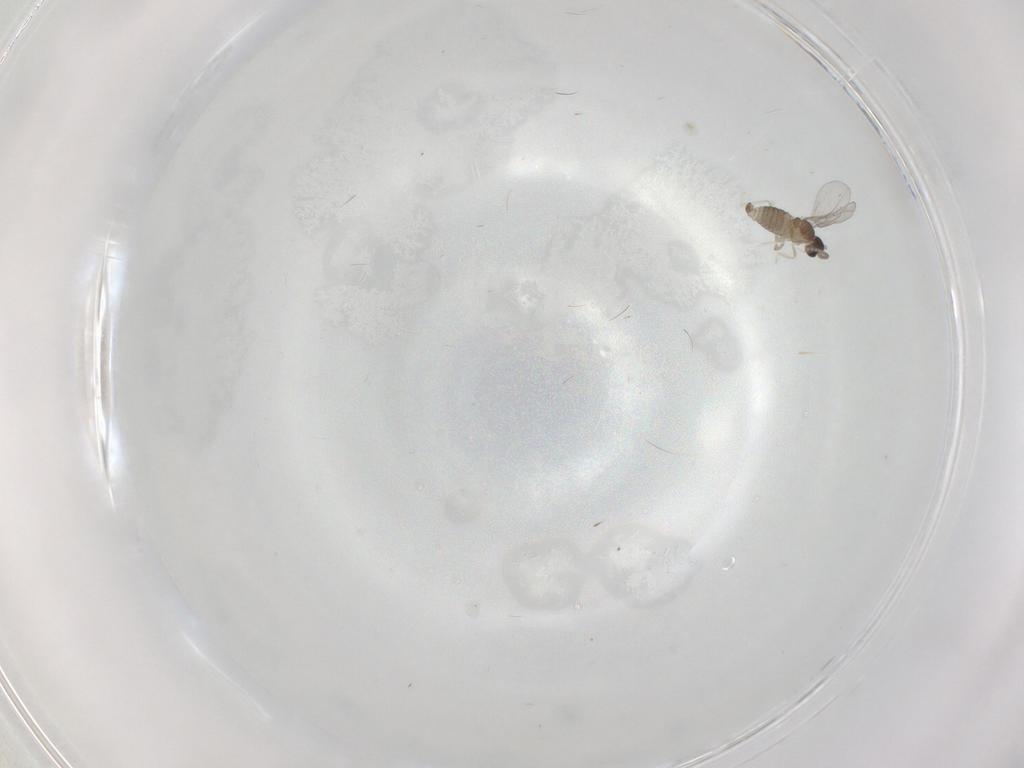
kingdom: Animalia
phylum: Arthropoda
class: Insecta
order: Diptera
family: Cecidomyiidae
